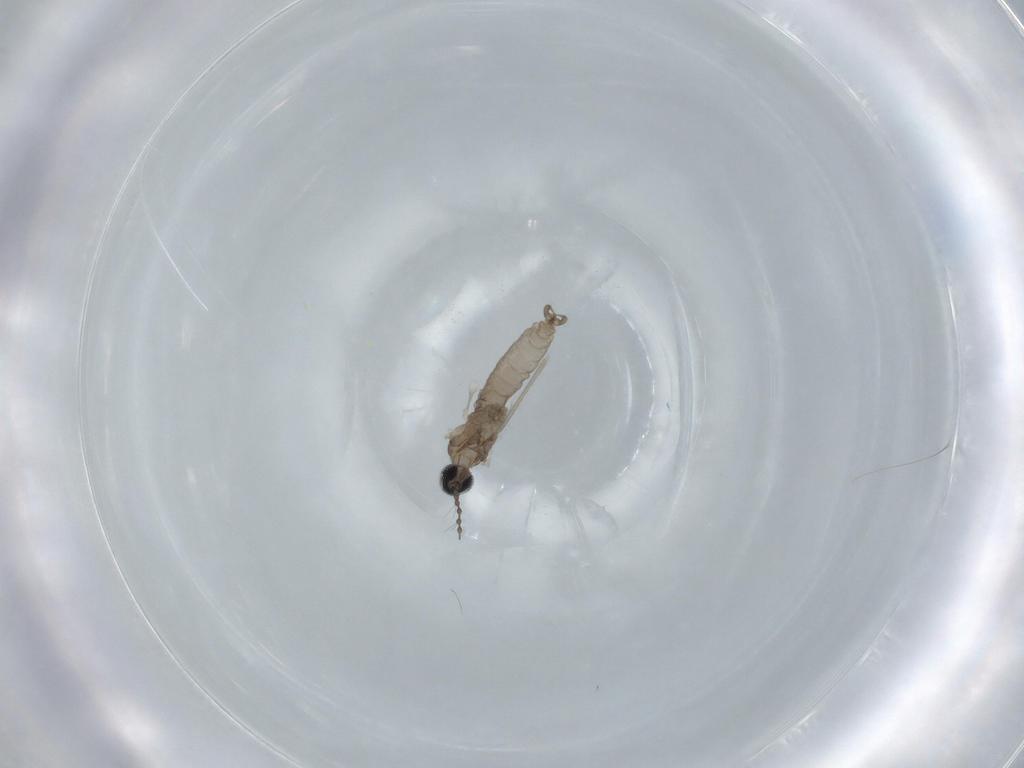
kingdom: Animalia
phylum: Arthropoda
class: Insecta
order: Diptera
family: Cecidomyiidae
